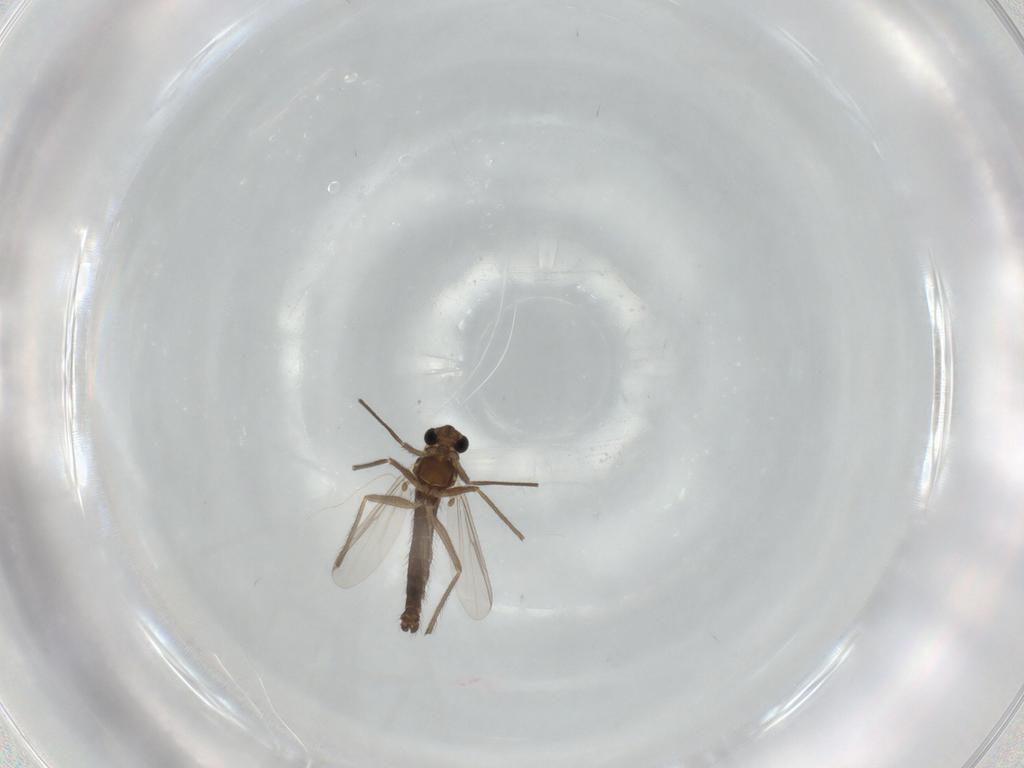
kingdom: Animalia
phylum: Arthropoda
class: Insecta
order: Diptera
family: Chironomidae
